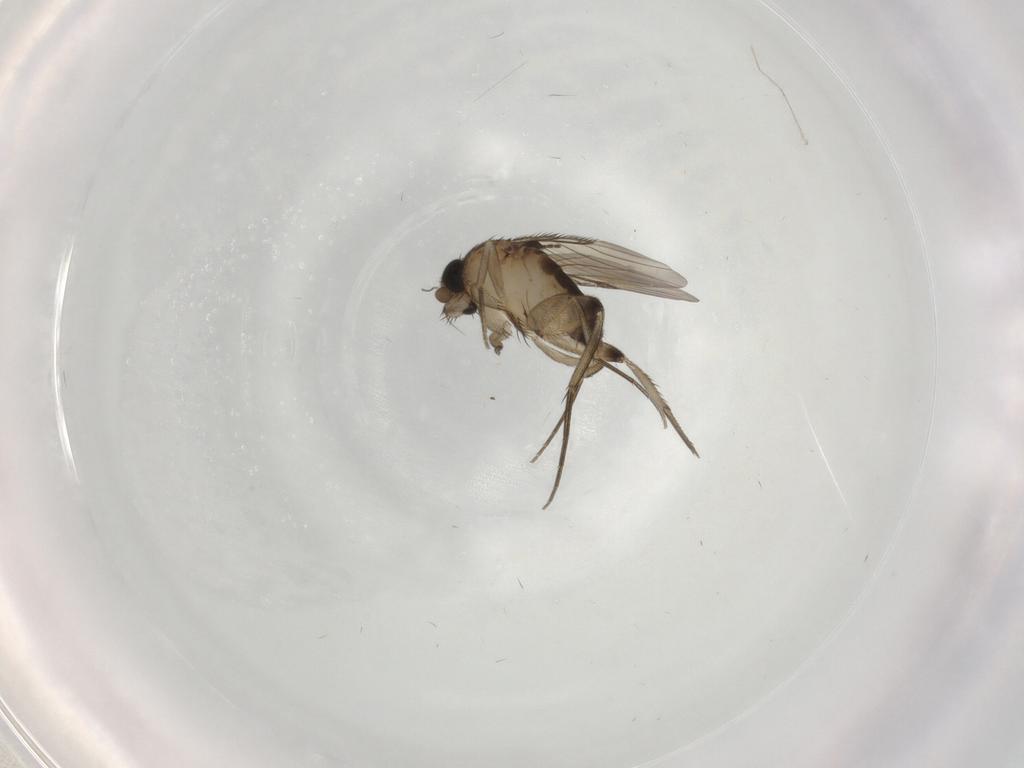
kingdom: Animalia
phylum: Arthropoda
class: Insecta
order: Diptera
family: Phoridae
